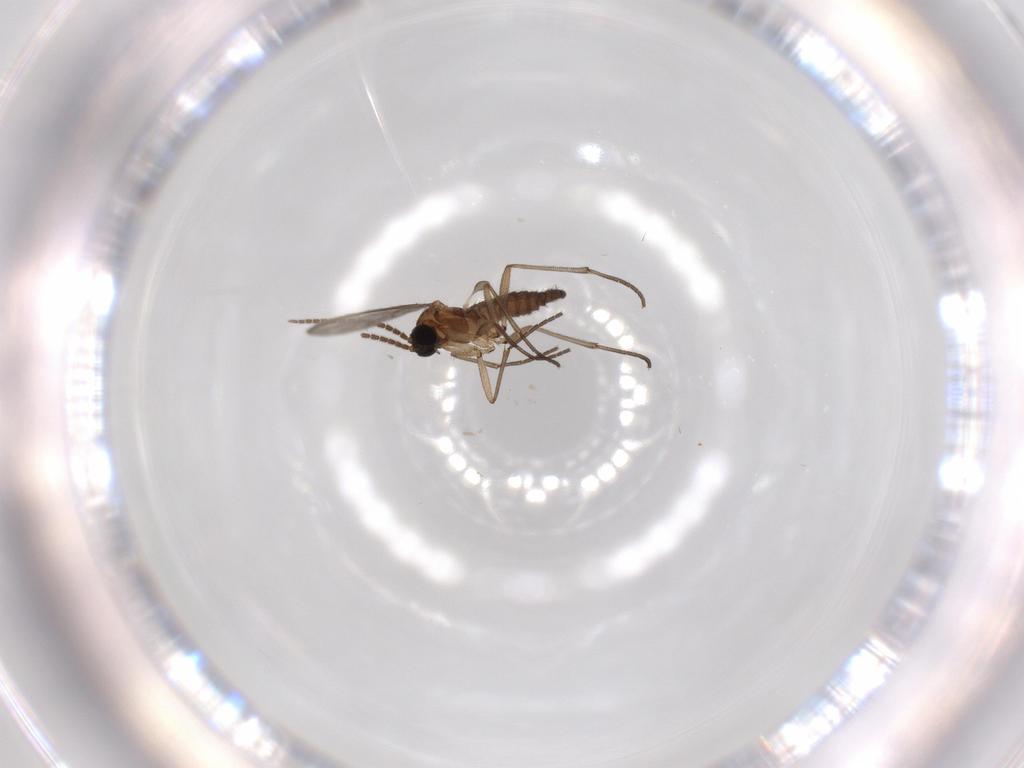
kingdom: Animalia
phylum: Arthropoda
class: Insecta
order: Diptera
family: Sciaridae
